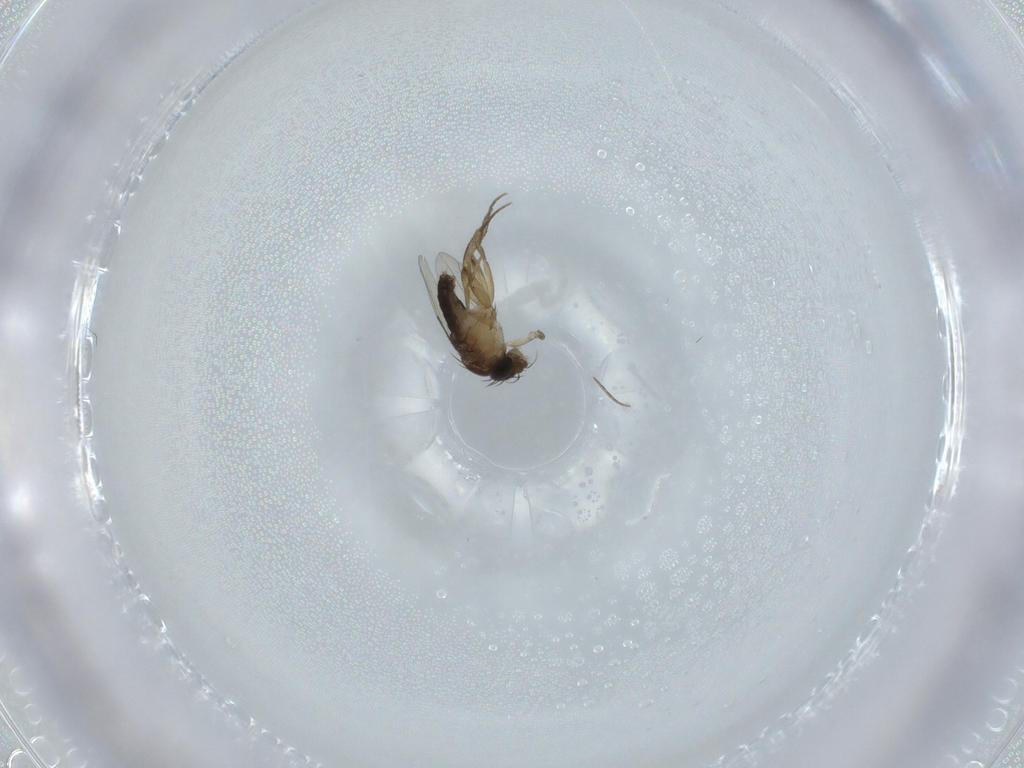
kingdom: Animalia
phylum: Arthropoda
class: Insecta
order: Diptera
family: Phoridae
